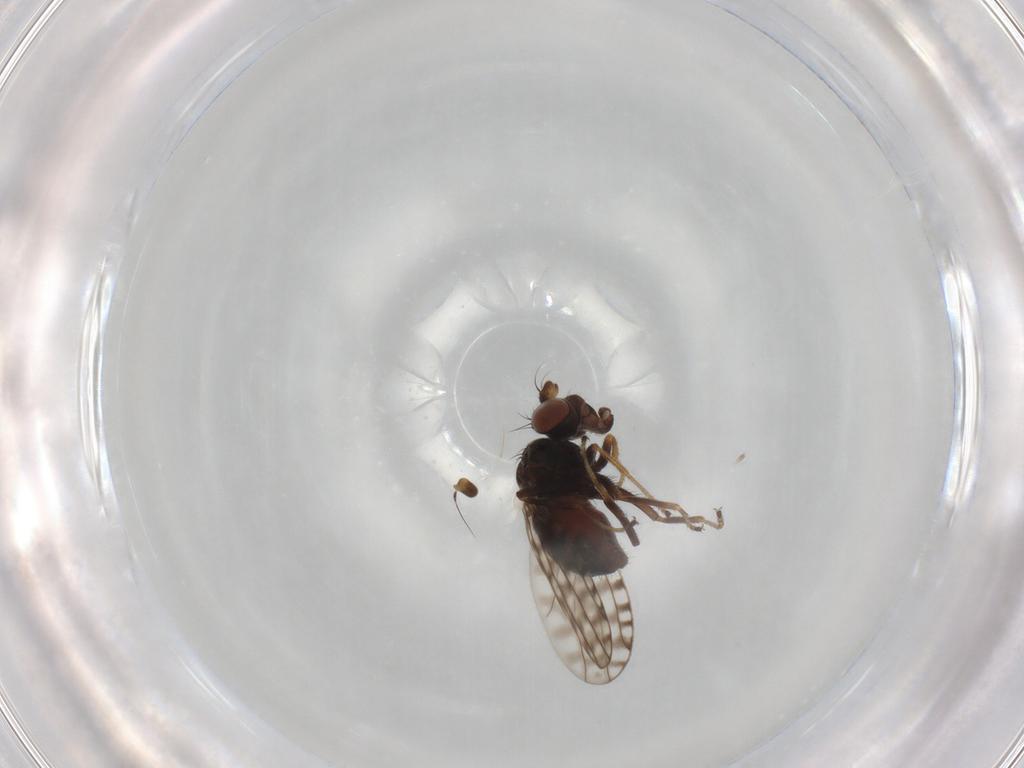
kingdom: Animalia
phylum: Arthropoda
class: Insecta
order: Diptera
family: Ephydridae
